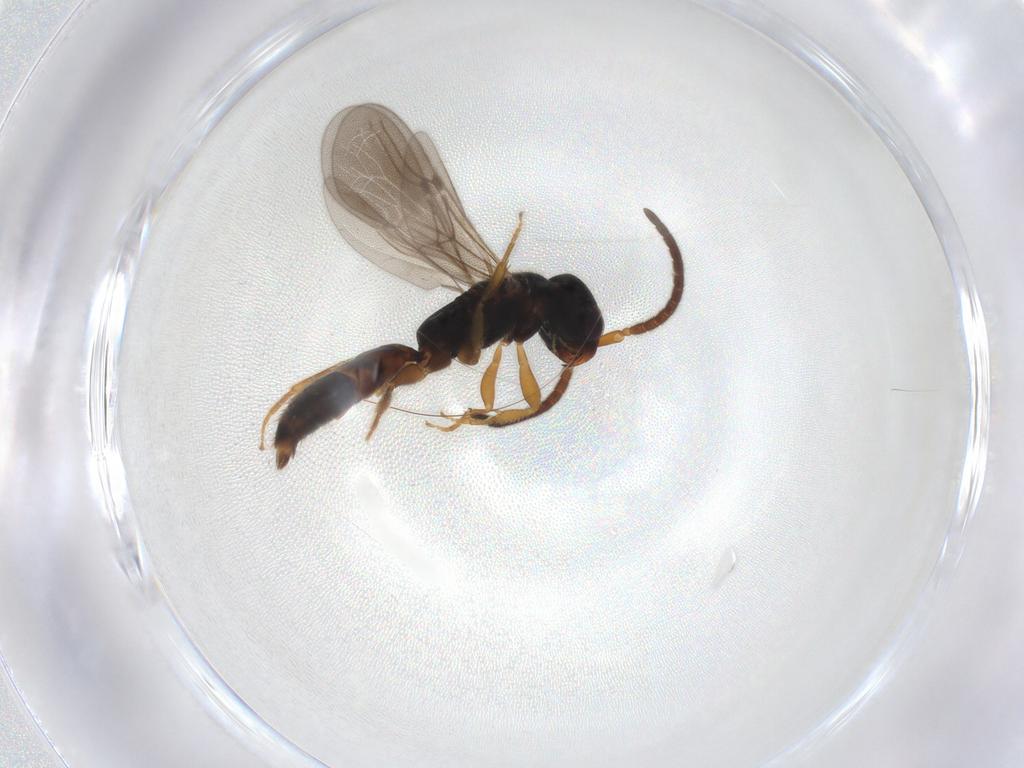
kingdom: Animalia
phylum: Arthropoda
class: Insecta
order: Hymenoptera
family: Bethylidae
